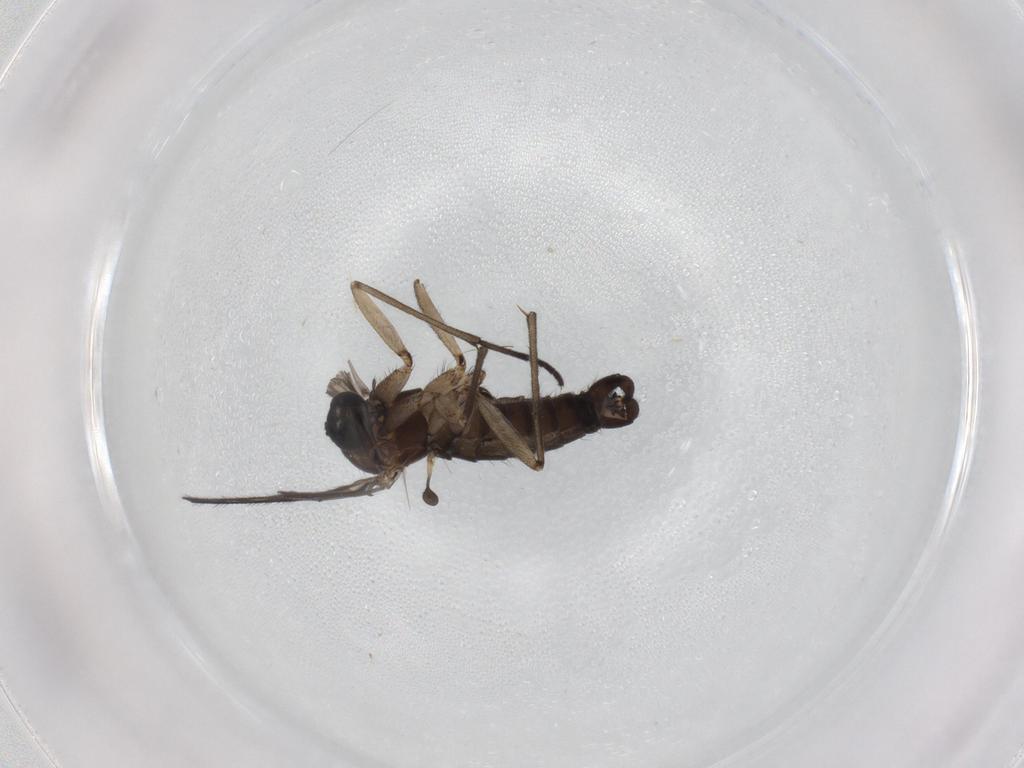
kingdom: Animalia
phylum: Arthropoda
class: Insecta
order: Diptera
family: Sciaridae
